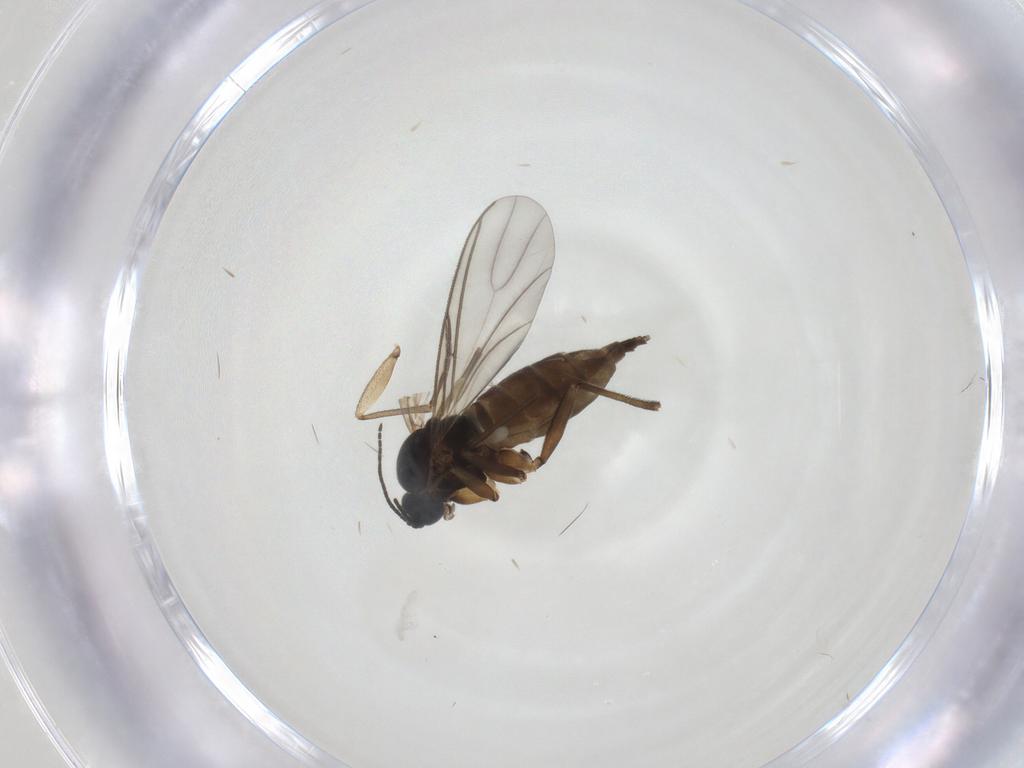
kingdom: Animalia
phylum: Arthropoda
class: Insecta
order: Diptera
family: Sciaridae
